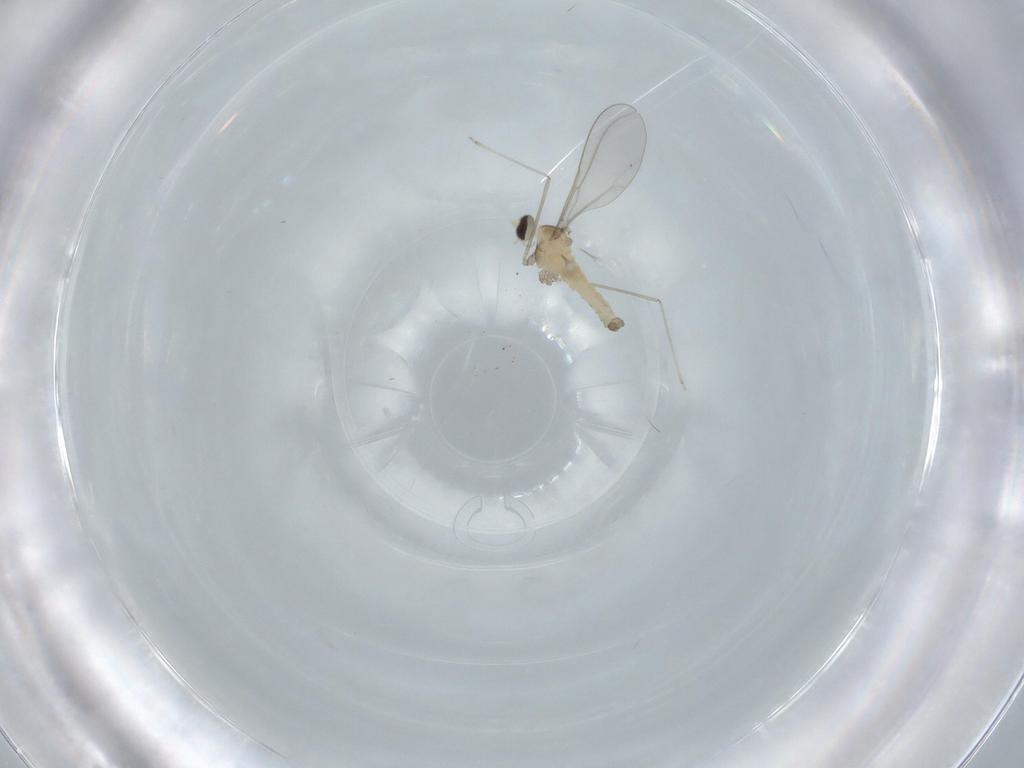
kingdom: Animalia
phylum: Arthropoda
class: Insecta
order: Diptera
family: Cecidomyiidae
